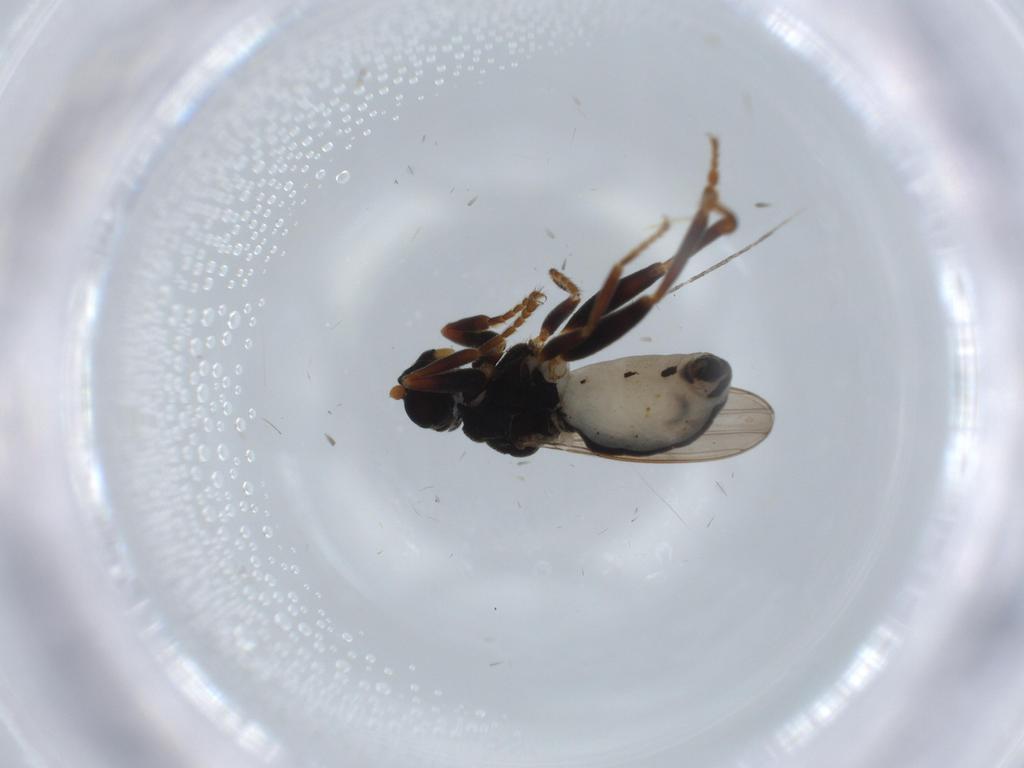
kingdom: Animalia
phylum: Arthropoda
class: Insecta
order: Diptera
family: Sphaeroceridae
